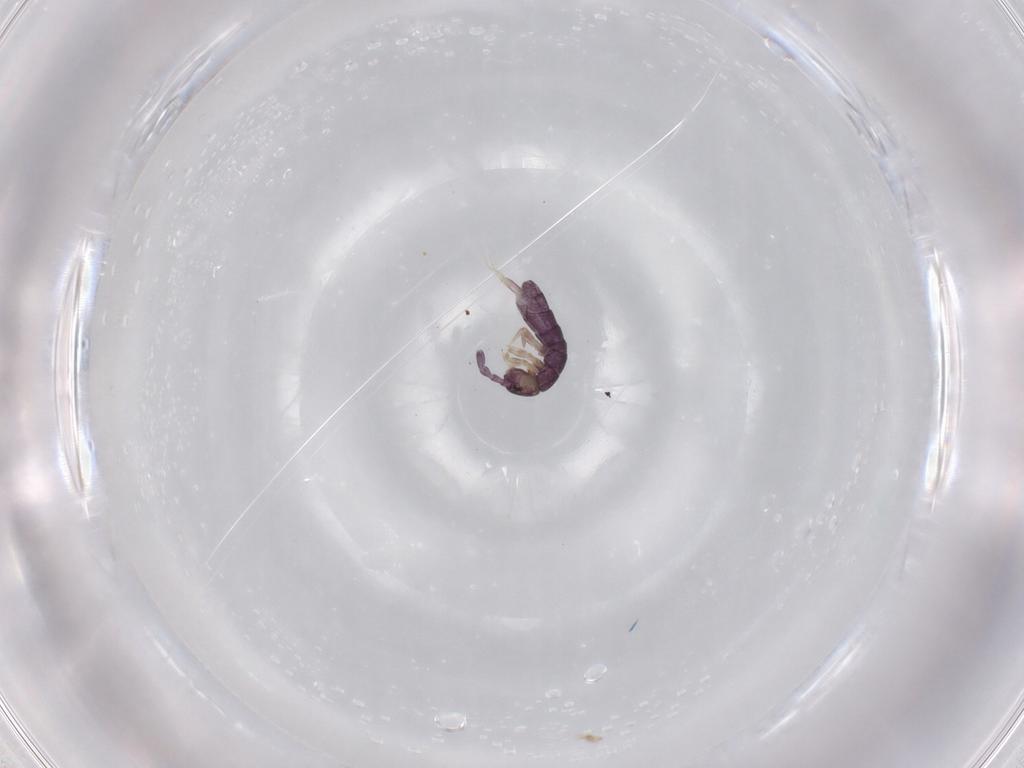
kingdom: Animalia
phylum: Arthropoda
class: Collembola
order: Entomobryomorpha
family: Isotomidae
